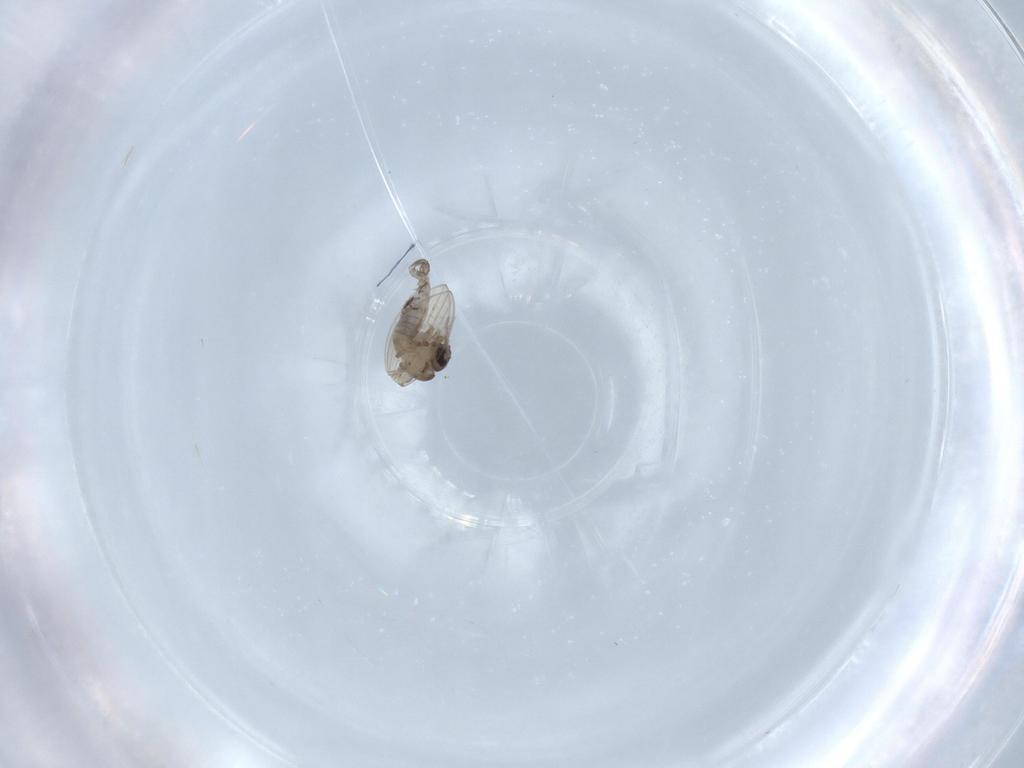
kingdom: Animalia
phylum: Arthropoda
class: Insecta
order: Diptera
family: Psychodidae
